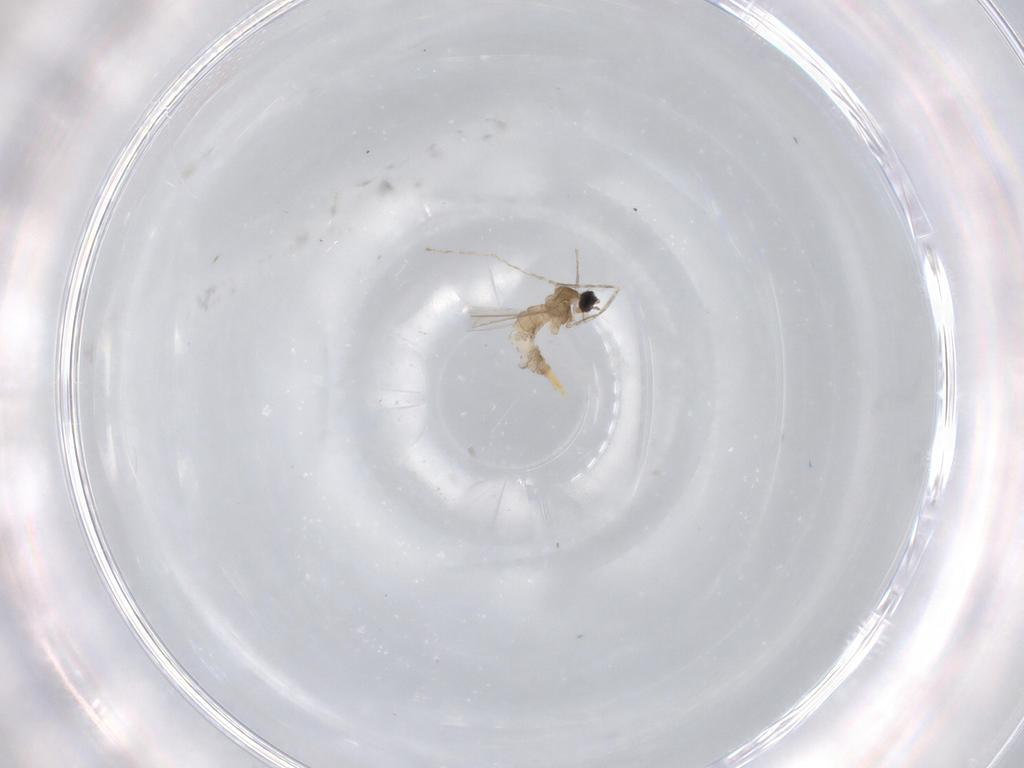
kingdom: Animalia
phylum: Arthropoda
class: Insecta
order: Diptera
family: Cecidomyiidae
